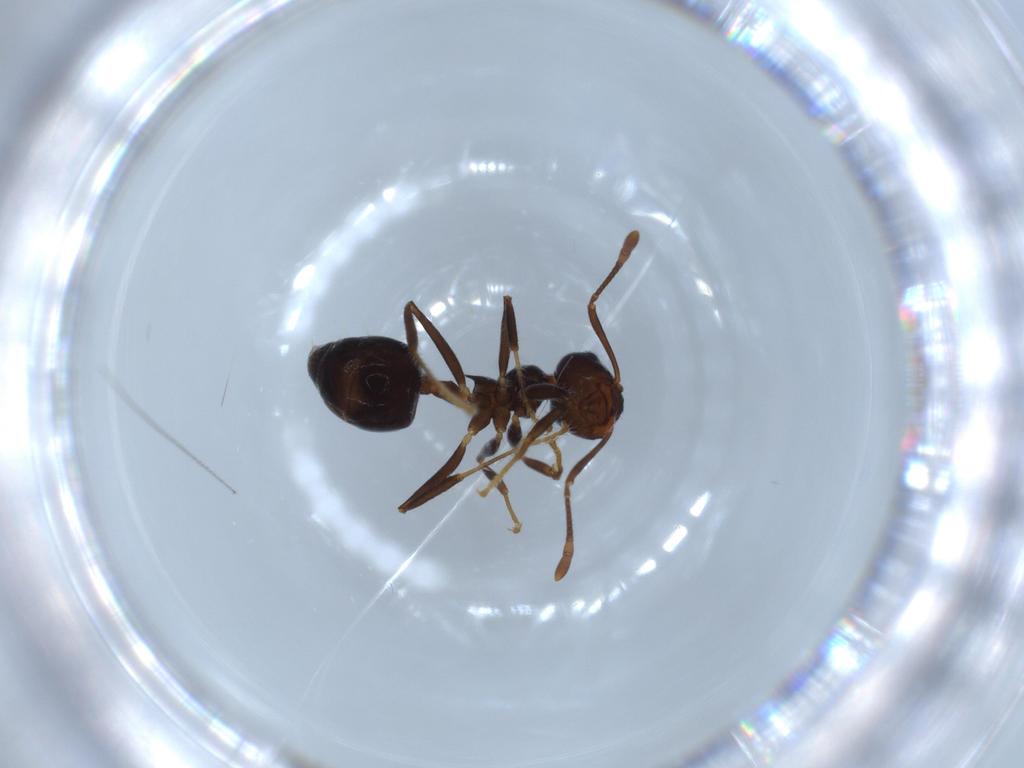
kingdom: Animalia
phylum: Arthropoda
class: Insecta
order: Hymenoptera
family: Formicidae
